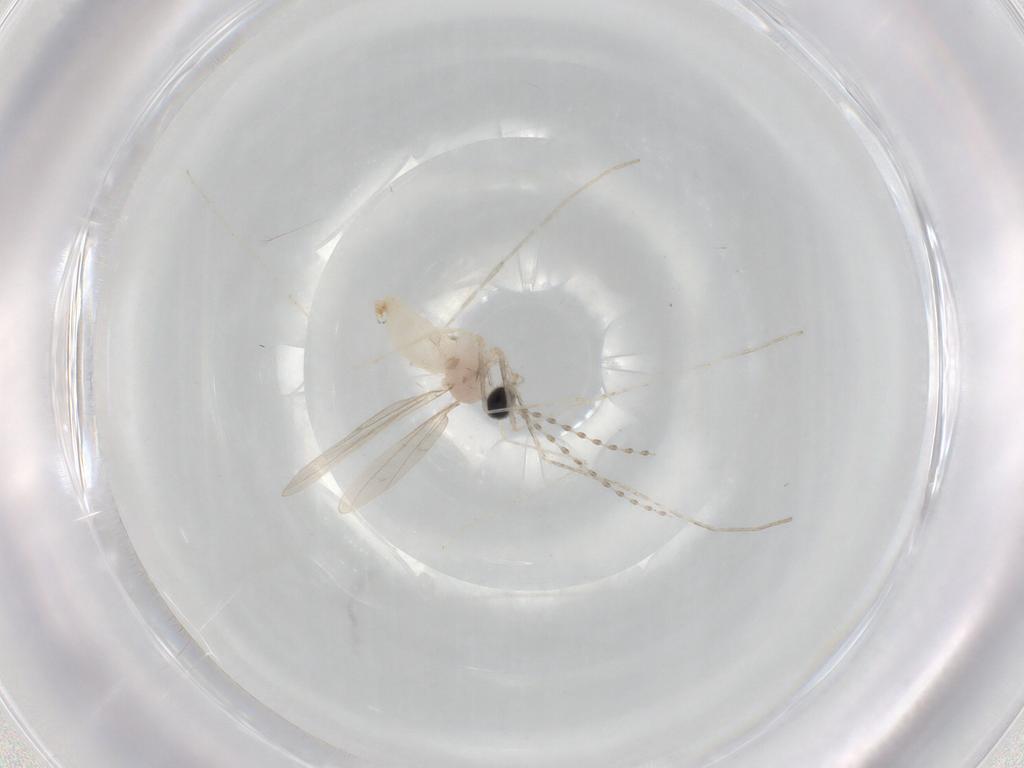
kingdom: Animalia
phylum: Arthropoda
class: Insecta
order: Diptera
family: Cecidomyiidae
